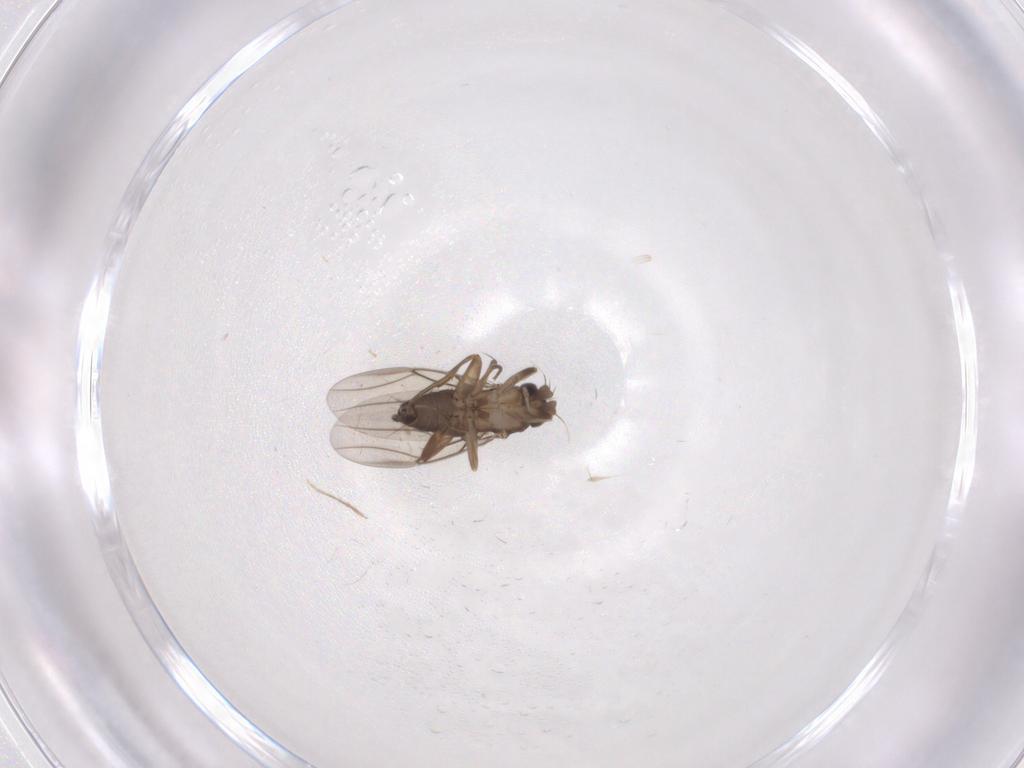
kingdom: Animalia
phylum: Arthropoda
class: Insecta
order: Diptera
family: Phoridae
